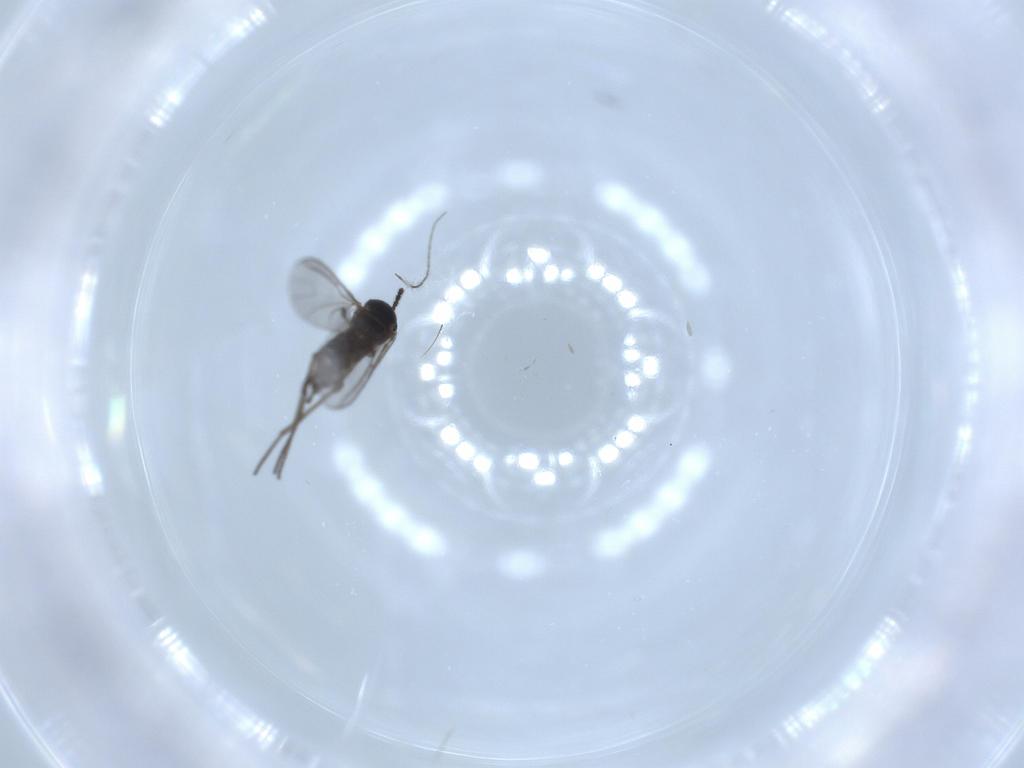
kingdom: Animalia
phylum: Arthropoda
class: Insecta
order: Diptera
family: Sciaridae
